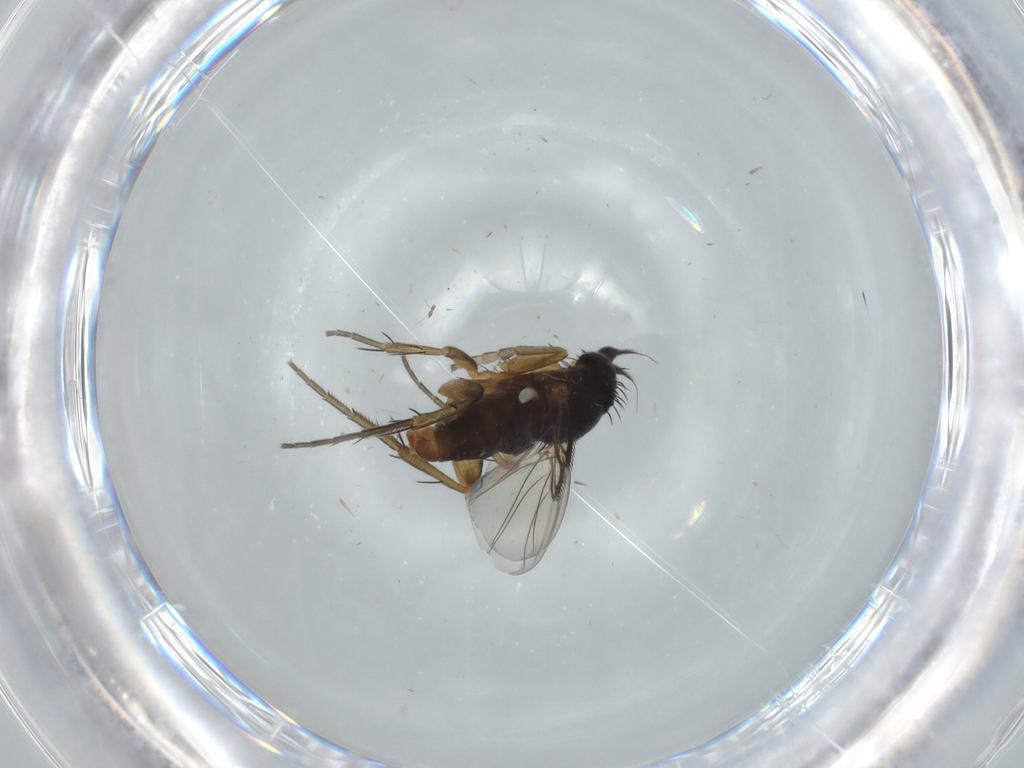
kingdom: Animalia
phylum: Arthropoda
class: Insecta
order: Diptera
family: Phoridae
